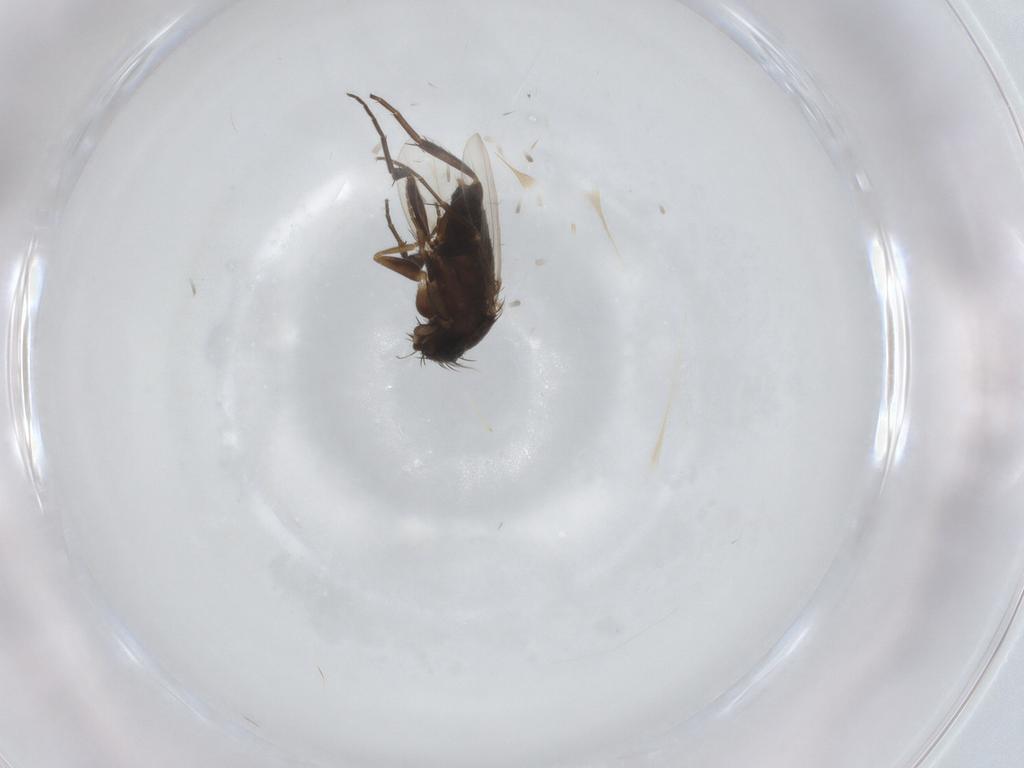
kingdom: Animalia
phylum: Arthropoda
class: Insecta
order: Diptera
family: Phoridae
